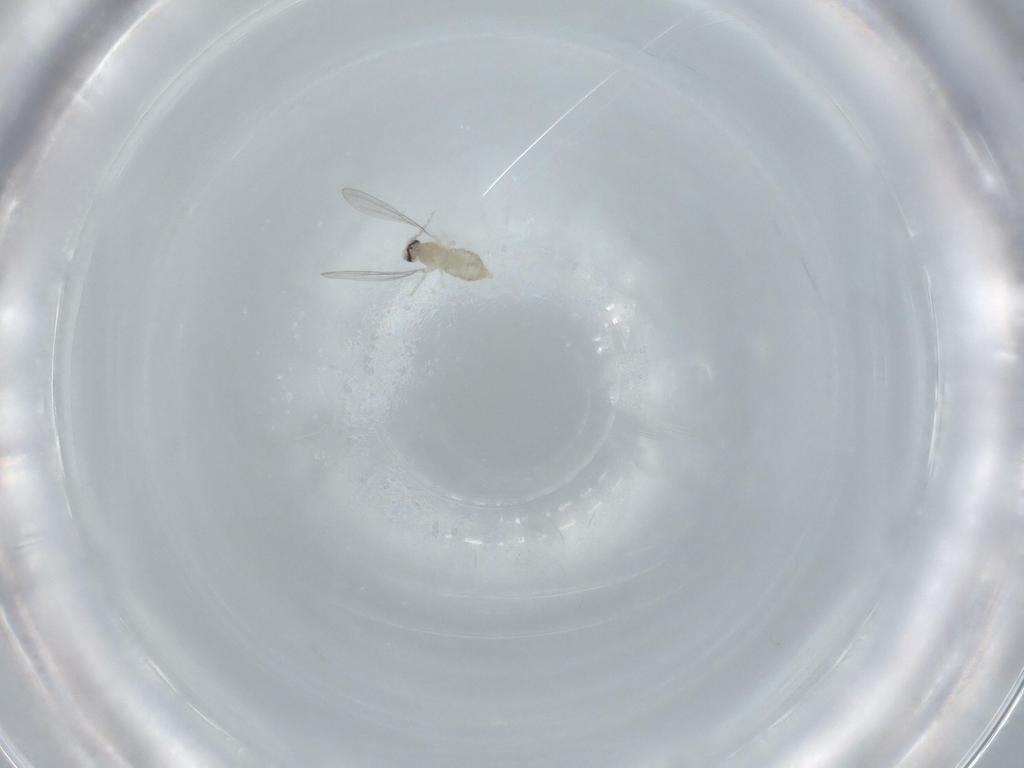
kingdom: Animalia
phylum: Arthropoda
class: Insecta
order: Diptera
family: Cecidomyiidae
